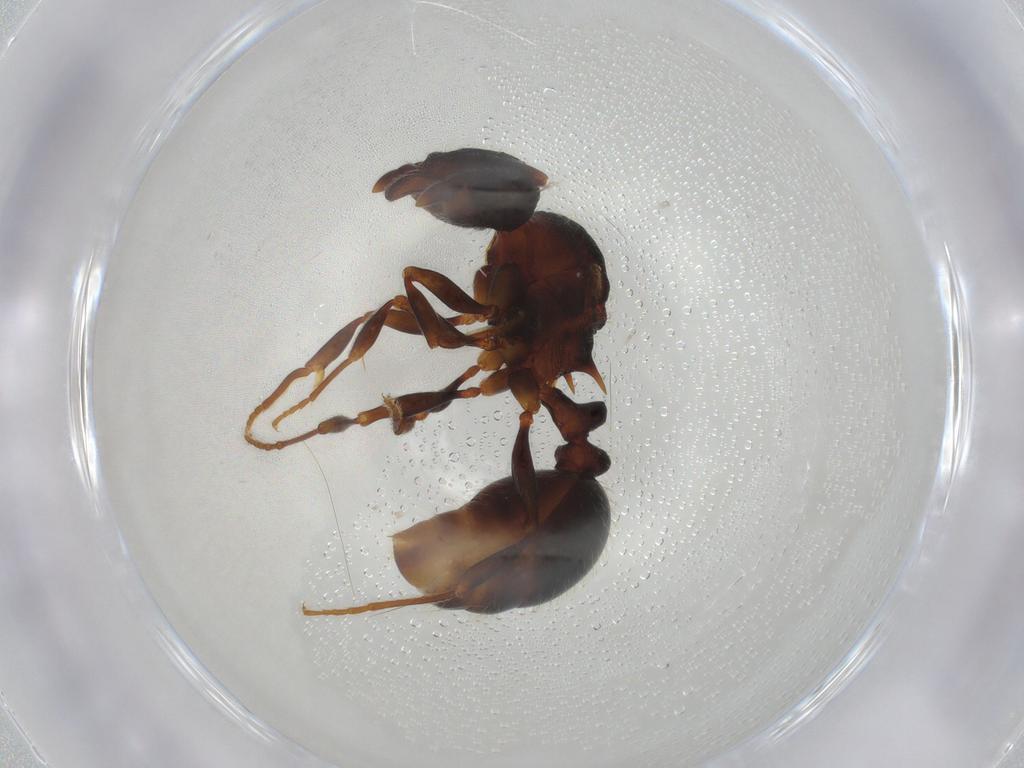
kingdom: Animalia
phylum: Arthropoda
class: Insecta
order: Hymenoptera
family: Formicidae
